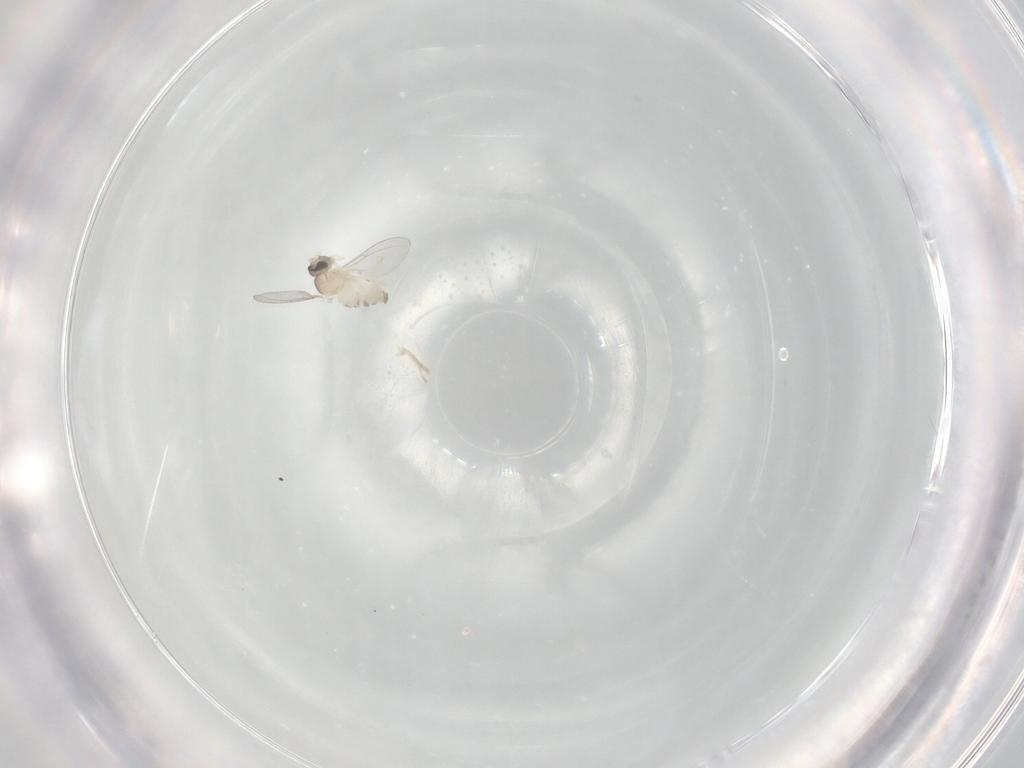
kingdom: Animalia
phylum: Arthropoda
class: Insecta
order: Diptera
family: Cecidomyiidae
